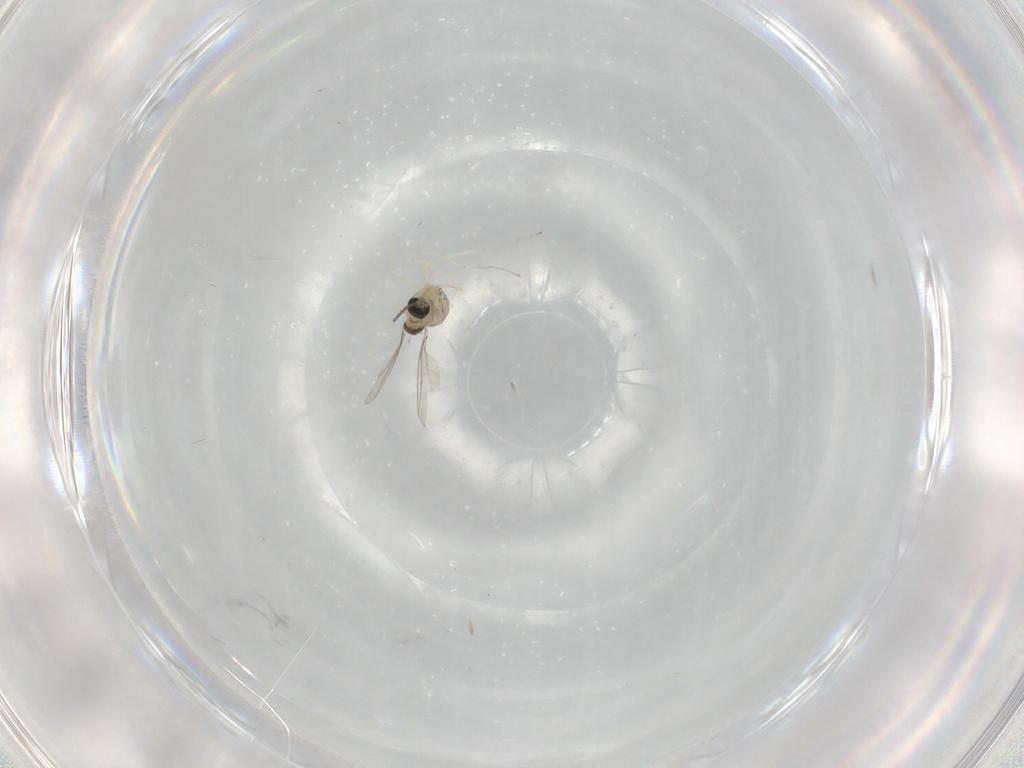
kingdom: Animalia
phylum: Arthropoda
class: Insecta
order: Diptera
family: Cecidomyiidae
